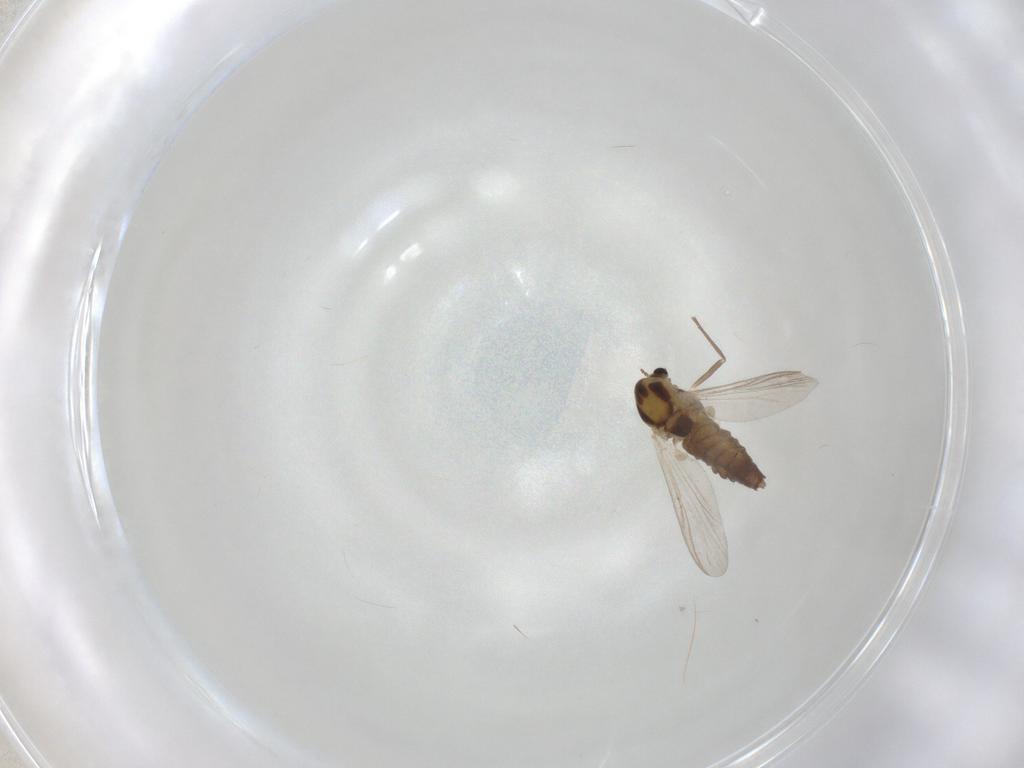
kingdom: Animalia
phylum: Arthropoda
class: Insecta
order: Diptera
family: Chironomidae
